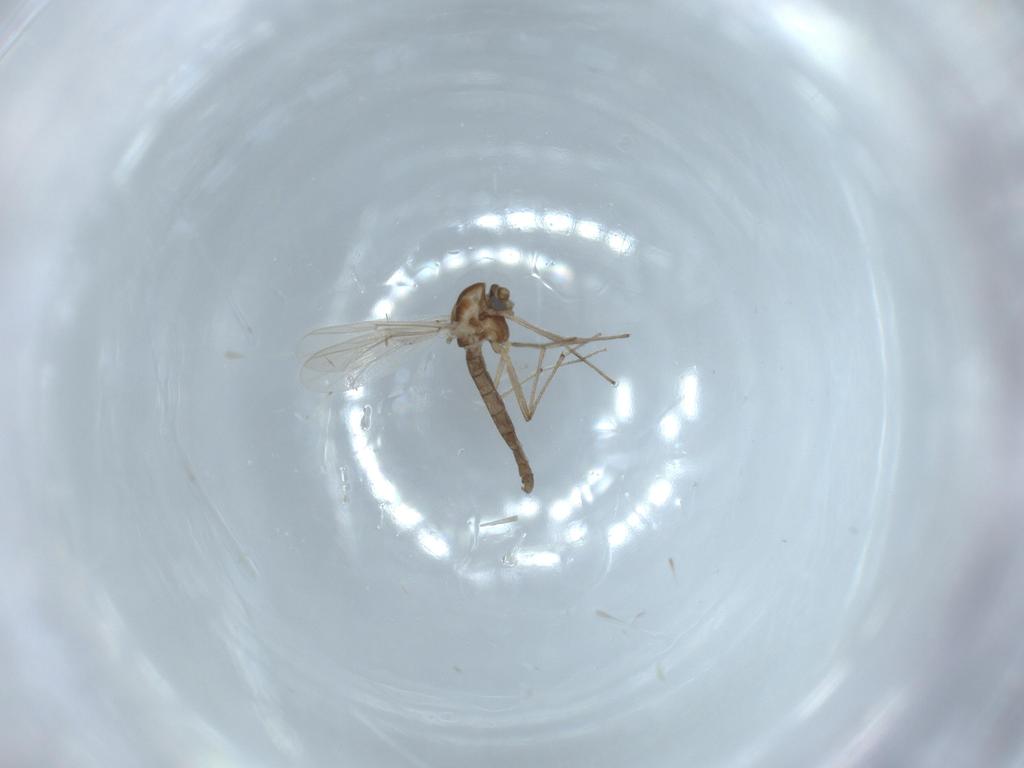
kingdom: Animalia
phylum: Arthropoda
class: Insecta
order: Diptera
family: Chironomidae
